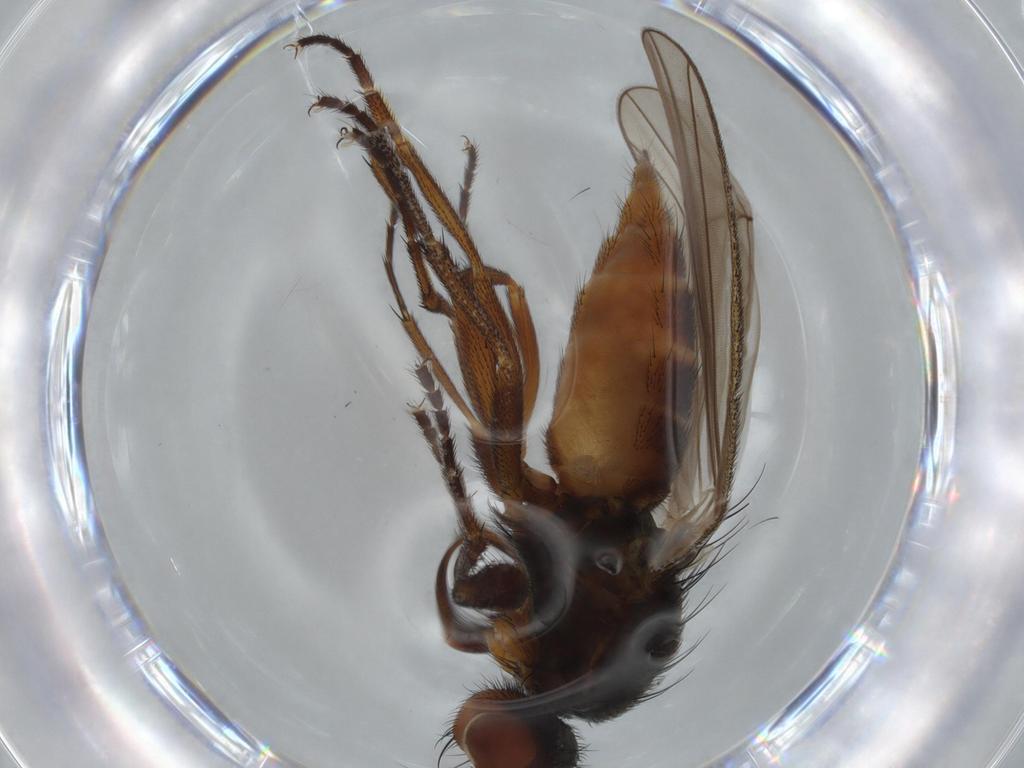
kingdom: Animalia
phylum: Arthropoda
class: Insecta
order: Diptera
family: Heleomyzidae
